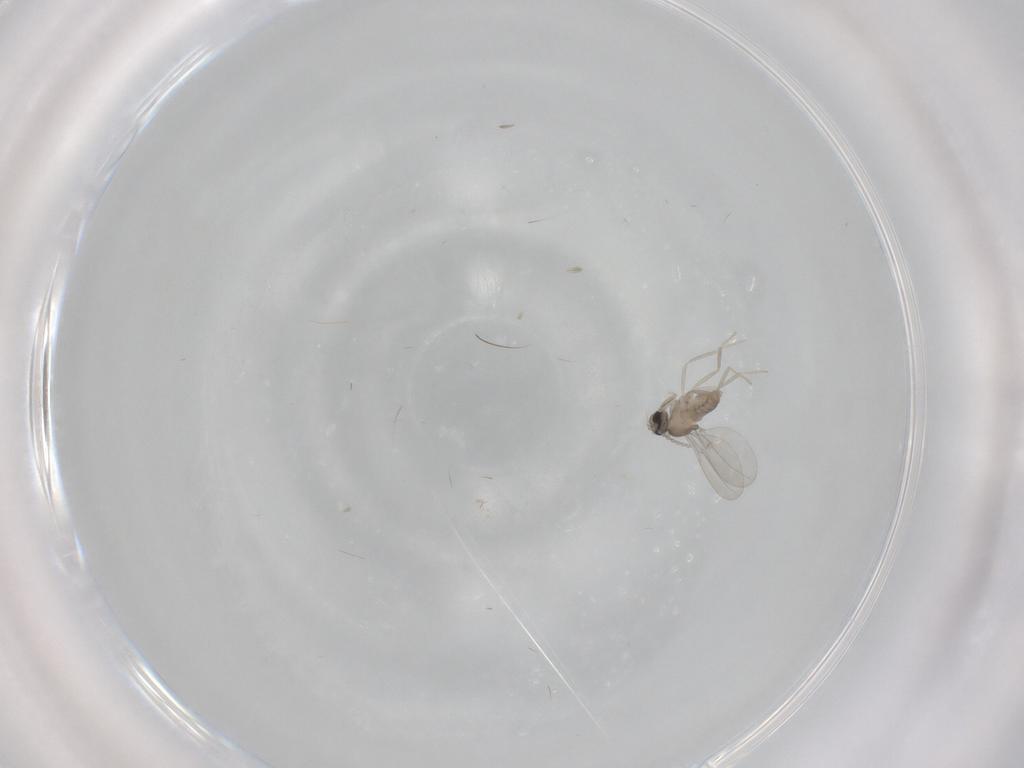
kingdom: Animalia
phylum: Arthropoda
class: Insecta
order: Diptera
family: Cecidomyiidae
